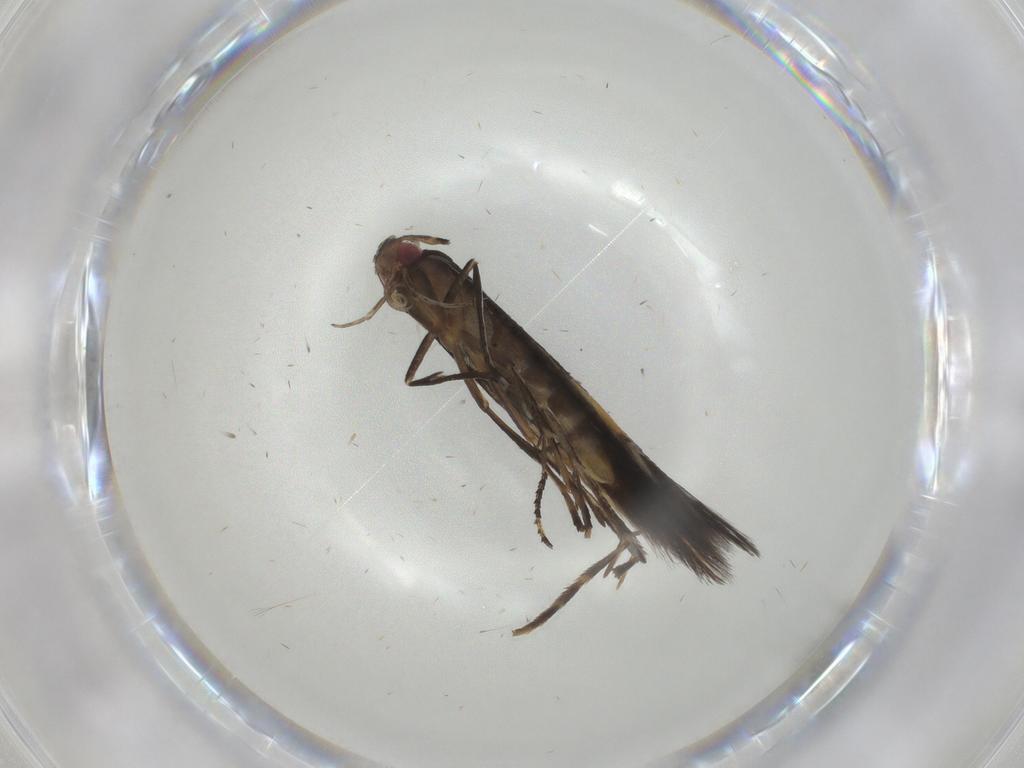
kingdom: Animalia
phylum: Arthropoda
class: Insecta
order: Lepidoptera
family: Cosmopterigidae
